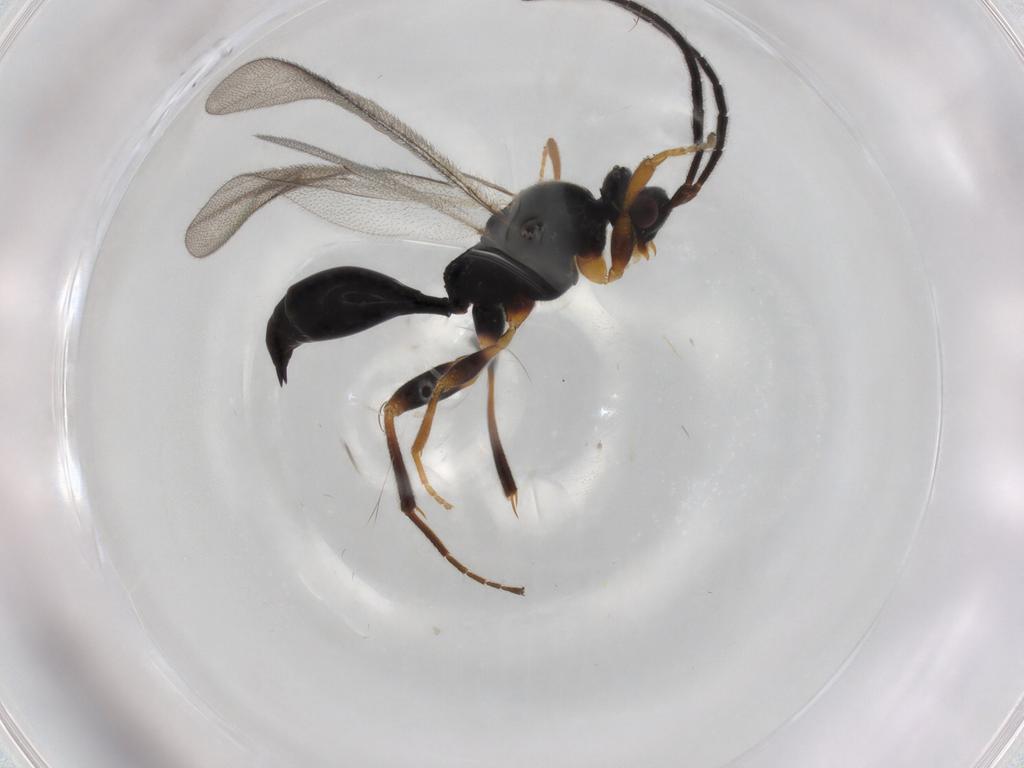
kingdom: Animalia
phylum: Arthropoda
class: Insecta
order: Hymenoptera
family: Proctotrupidae
